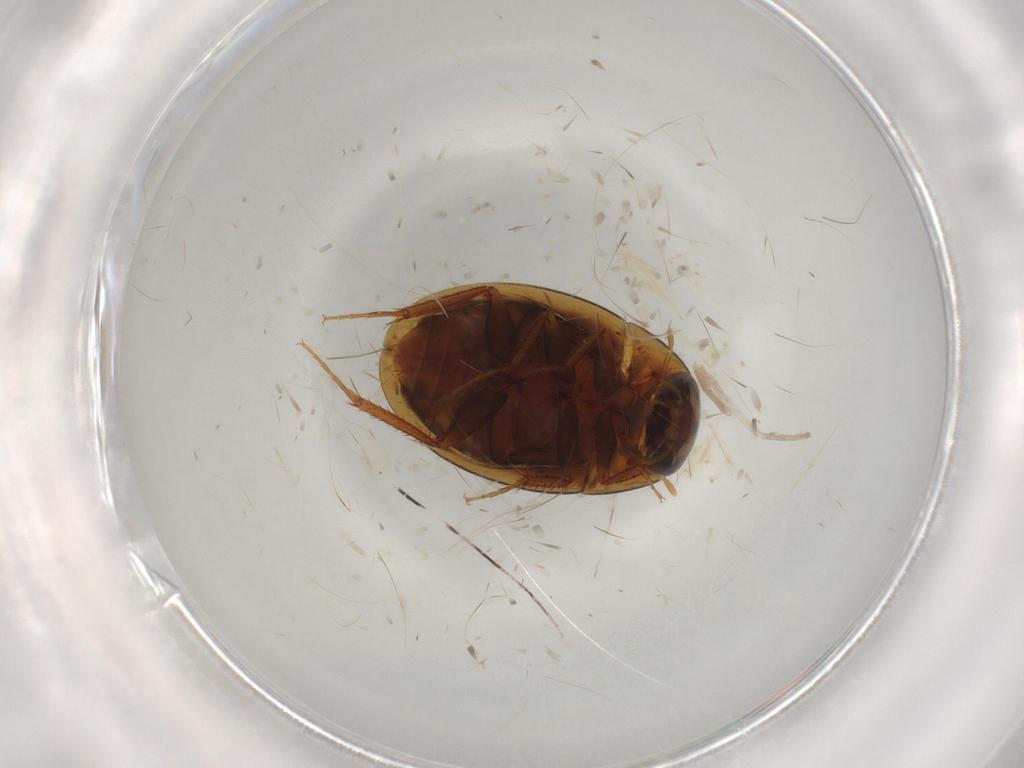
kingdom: Animalia
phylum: Arthropoda
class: Insecta
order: Coleoptera
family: Hydrophilidae
